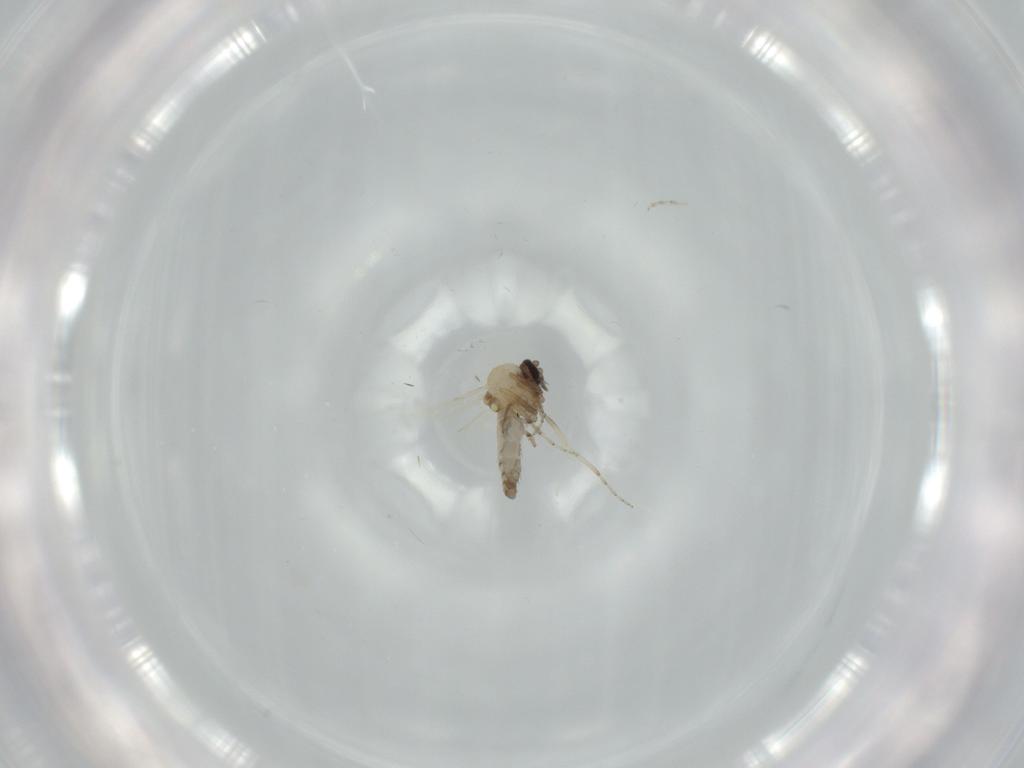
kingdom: Animalia
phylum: Arthropoda
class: Insecta
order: Diptera
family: Ceratopogonidae
